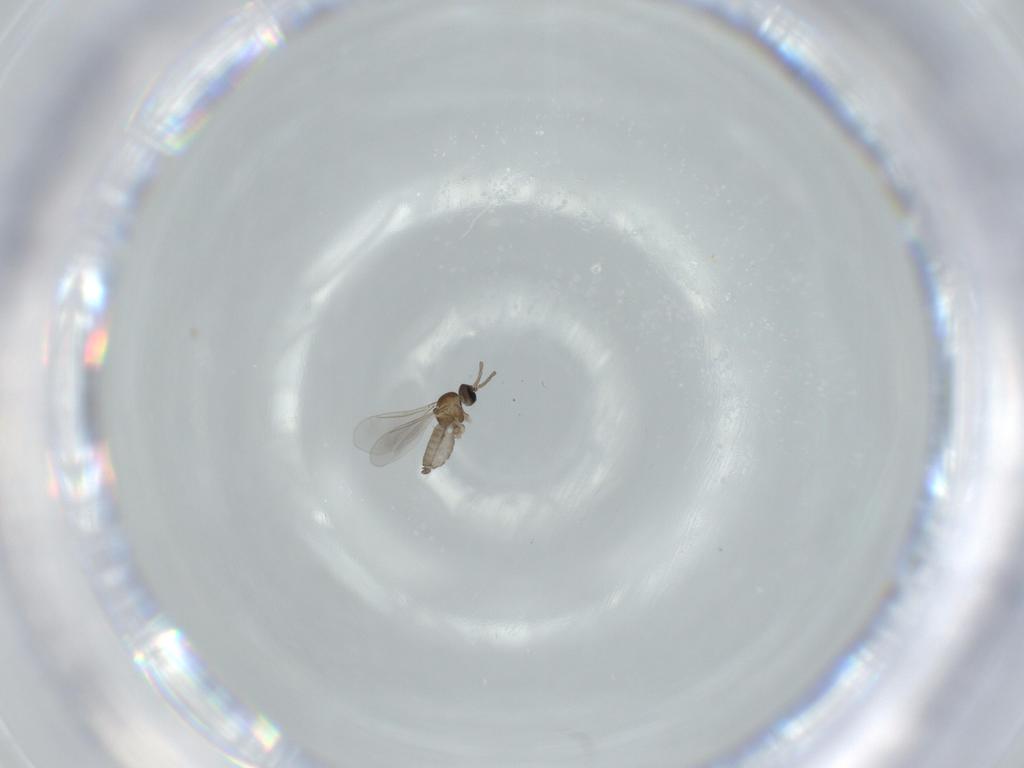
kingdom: Animalia
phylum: Arthropoda
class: Insecta
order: Diptera
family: Cecidomyiidae
